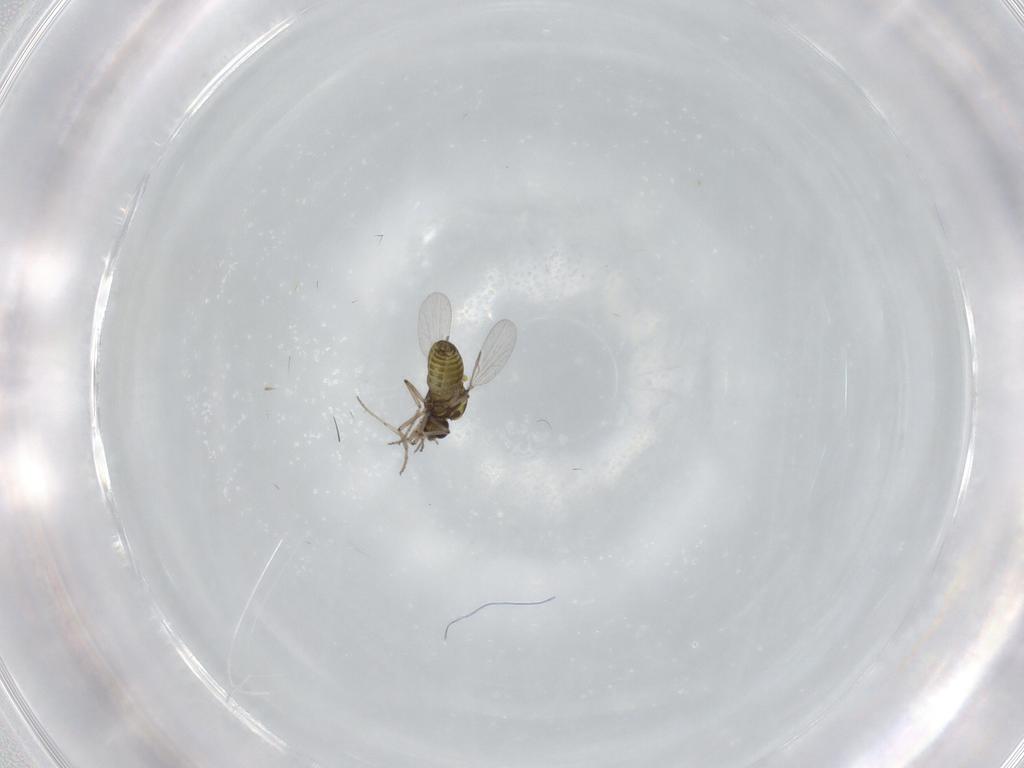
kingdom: Animalia
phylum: Arthropoda
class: Insecta
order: Diptera
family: Ceratopogonidae
